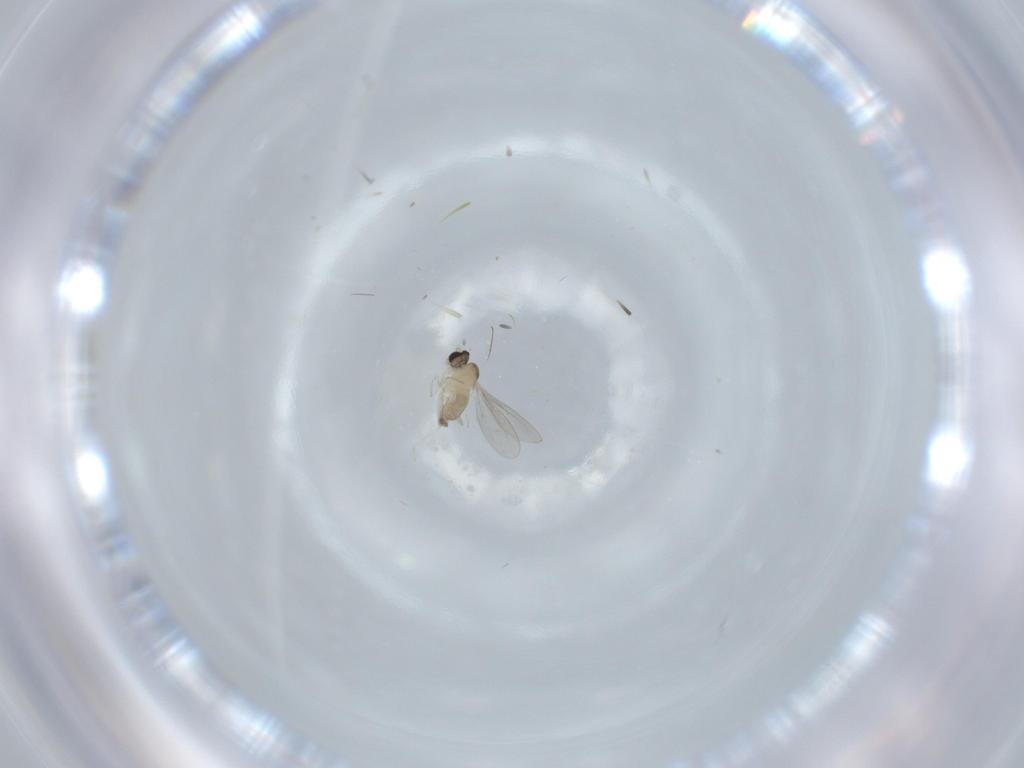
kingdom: Animalia
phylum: Arthropoda
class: Insecta
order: Diptera
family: Cecidomyiidae
